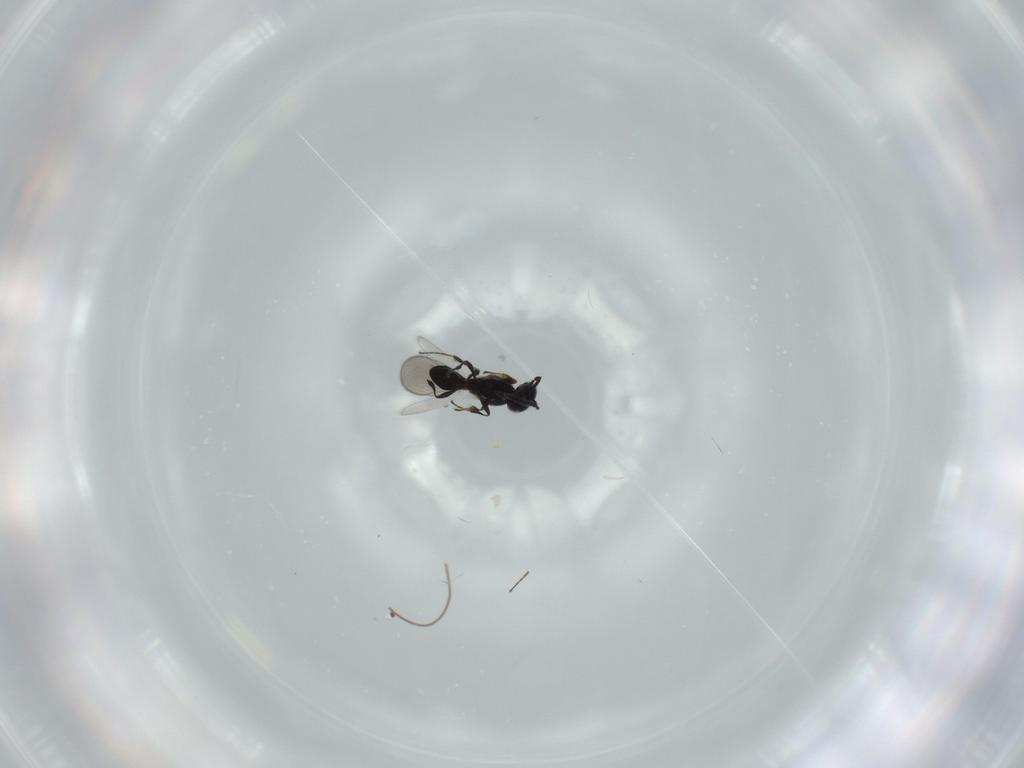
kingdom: Animalia
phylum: Arthropoda
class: Insecta
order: Diptera
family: Mythicomyiidae
